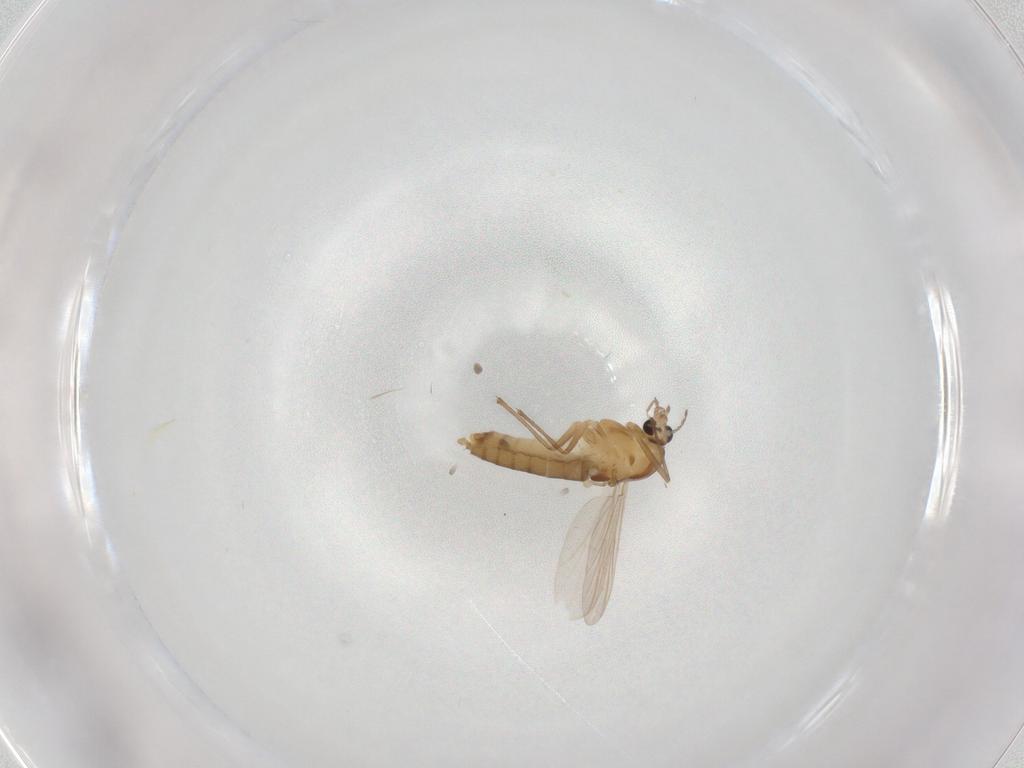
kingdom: Animalia
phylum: Arthropoda
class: Insecta
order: Diptera
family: Chironomidae
